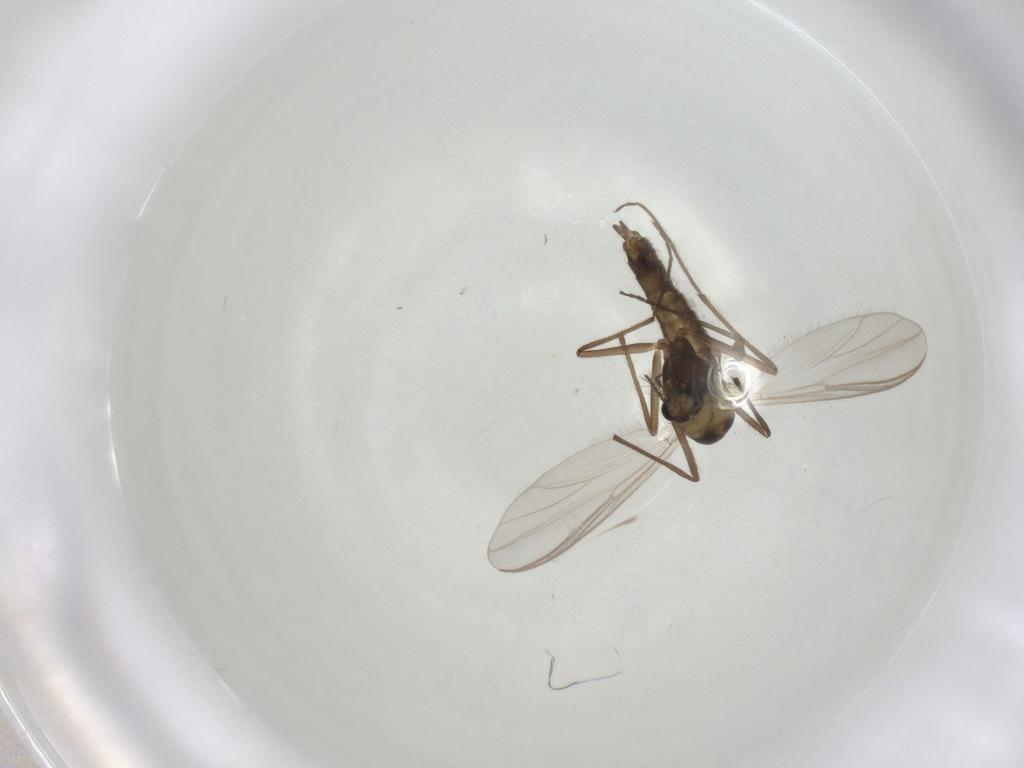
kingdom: Animalia
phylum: Arthropoda
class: Insecta
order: Diptera
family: Chironomidae
